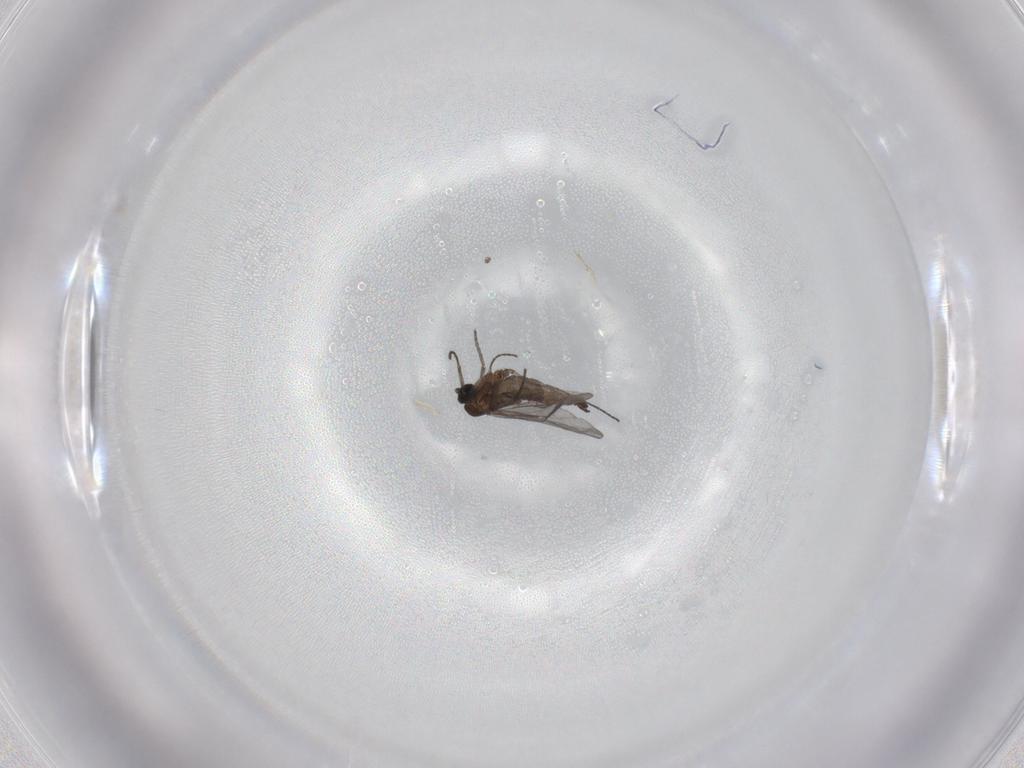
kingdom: Animalia
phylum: Arthropoda
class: Insecta
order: Diptera
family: Sciaridae
